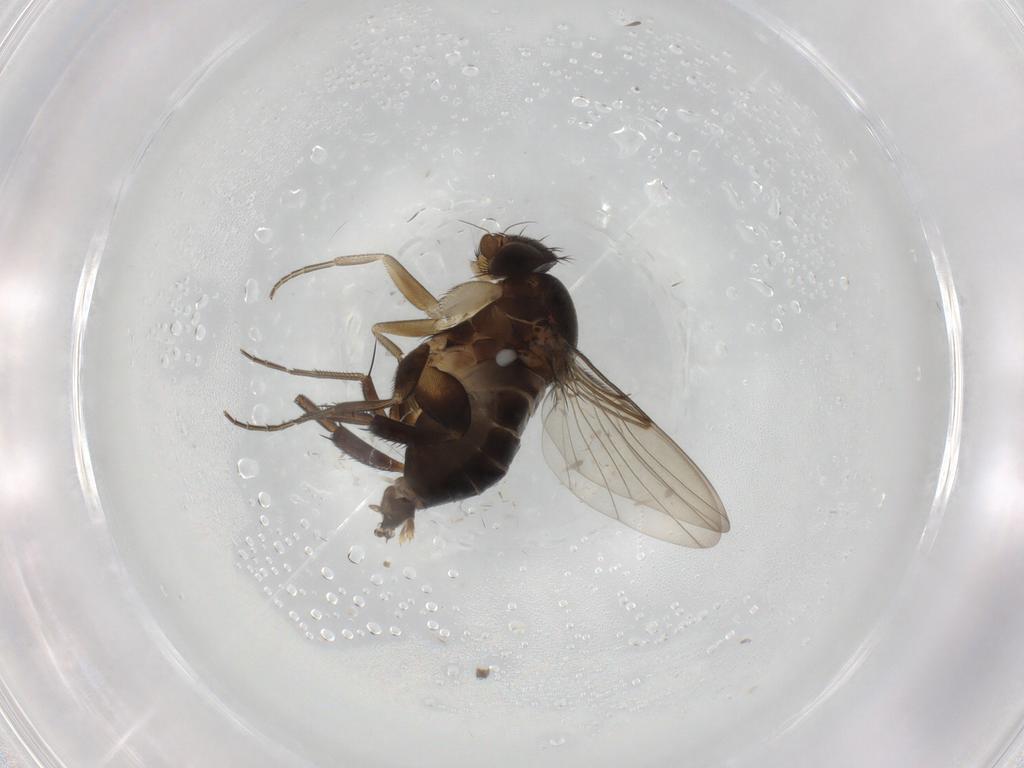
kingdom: Animalia
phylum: Arthropoda
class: Insecta
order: Diptera
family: Phoridae
